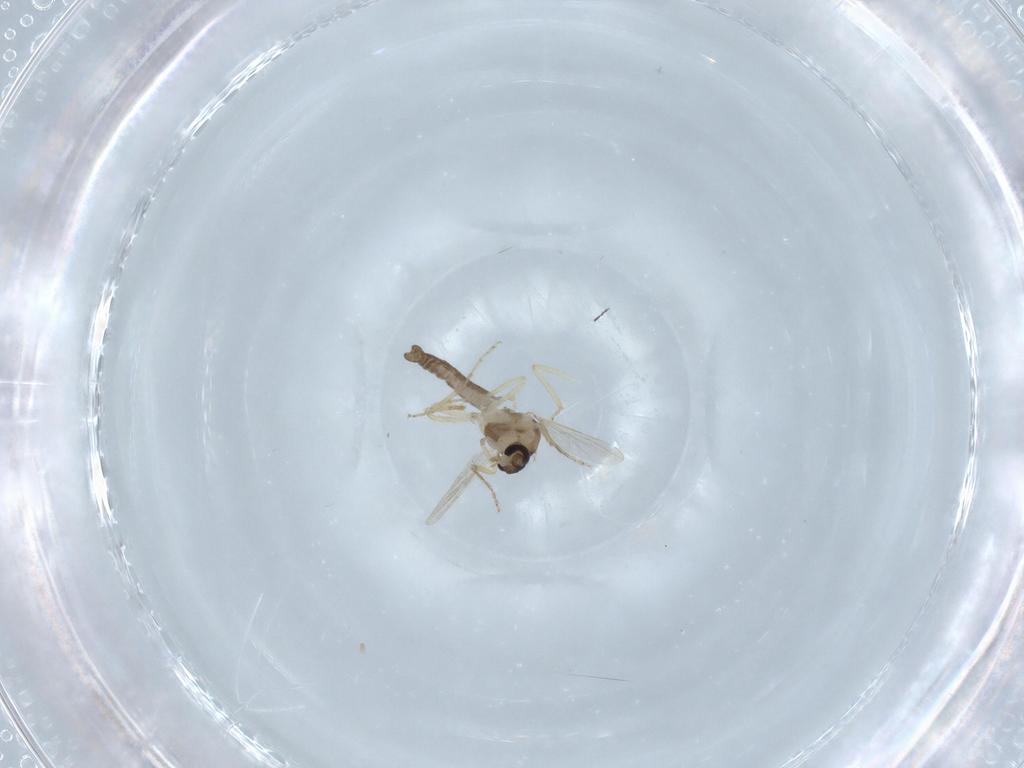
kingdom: Animalia
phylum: Arthropoda
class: Insecta
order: Diptera
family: Ceratopogonidae
